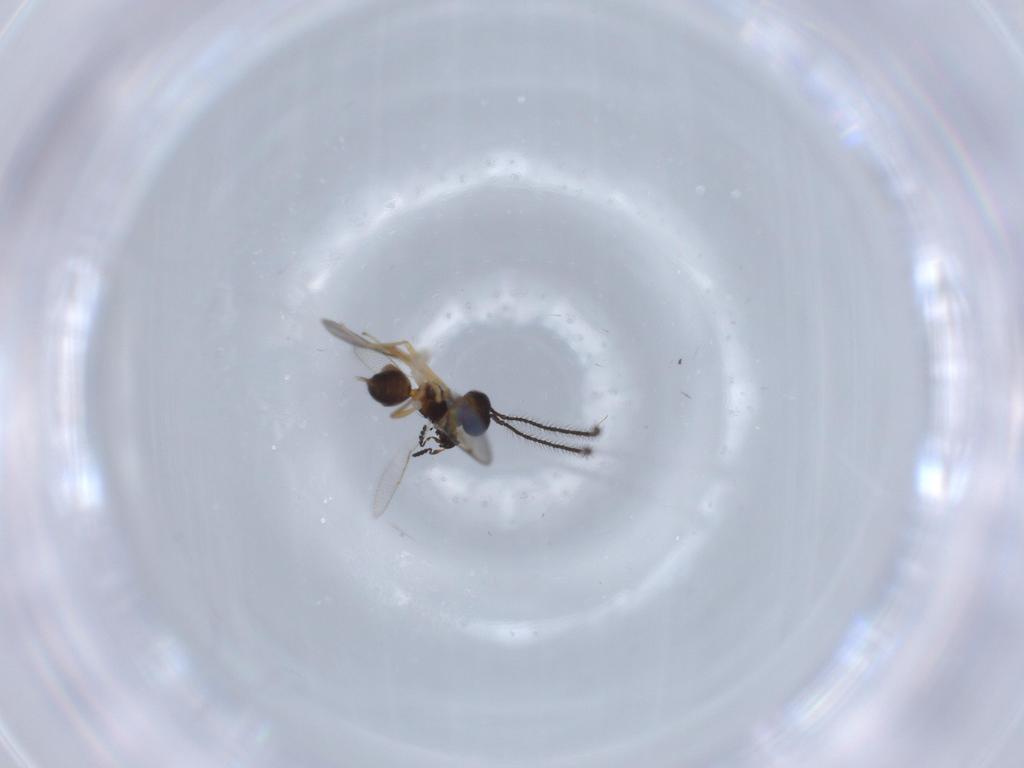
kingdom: Animalia
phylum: Arthropoda
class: Insecta
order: Hymenoptera
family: Platygastridae
